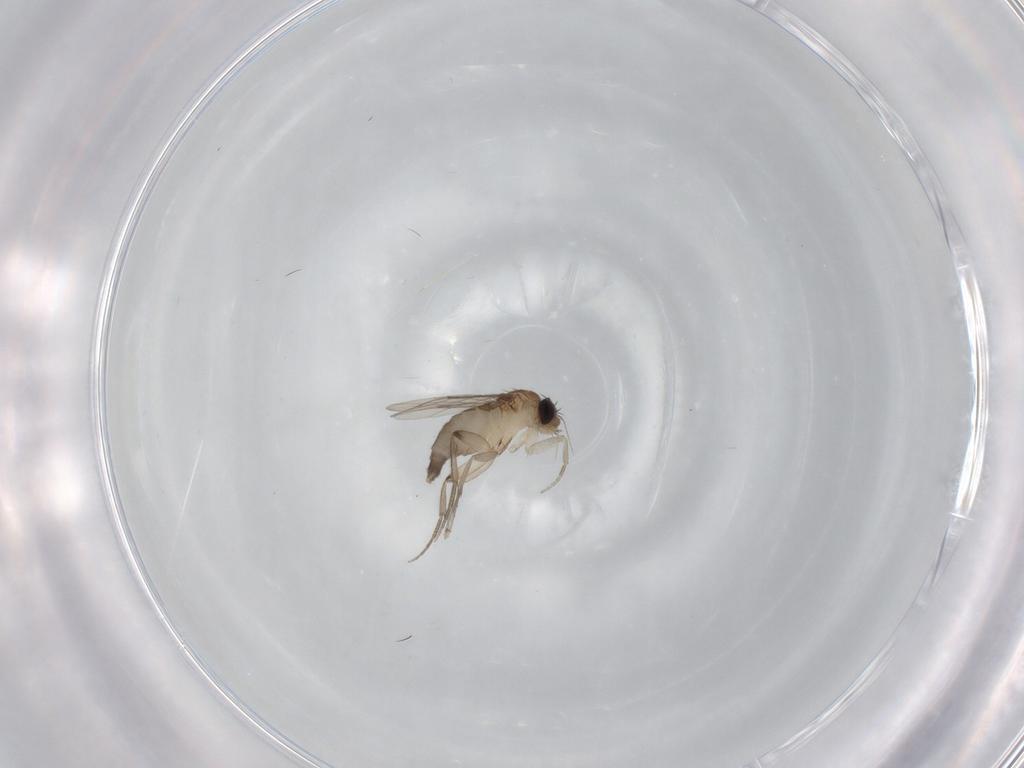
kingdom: Animalia
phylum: Arthropoda
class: Insecta
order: Diptera
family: Phoridae
